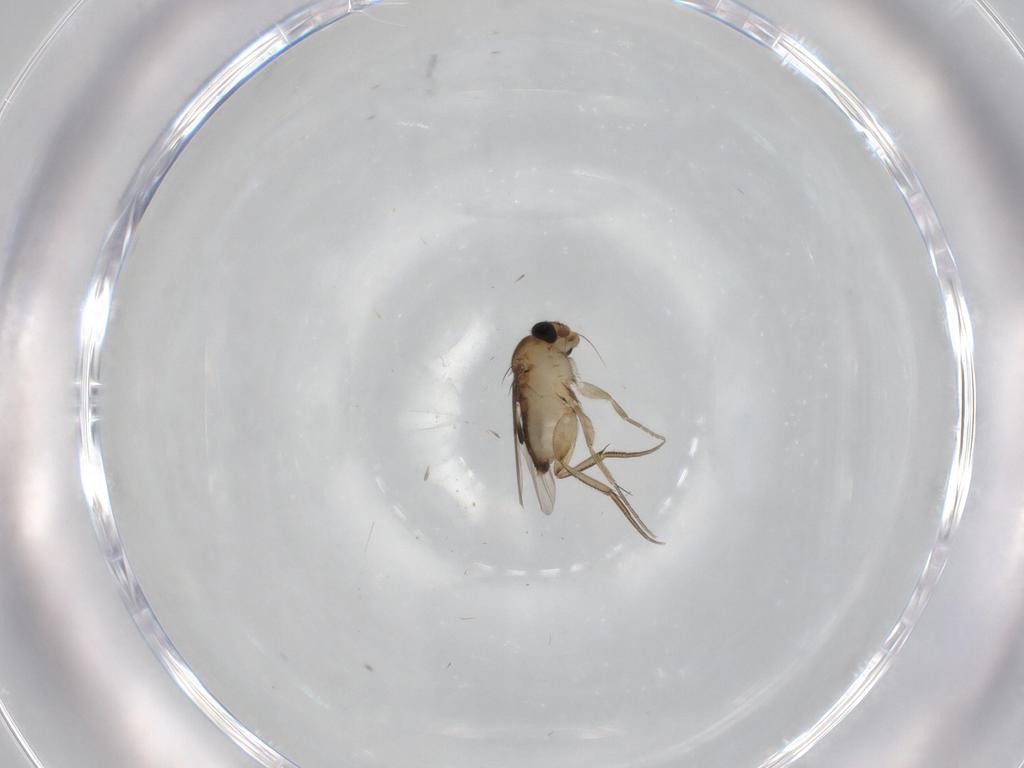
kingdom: Animalia
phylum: Arthropoda
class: Insecta
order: Diptera
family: Phoridae
